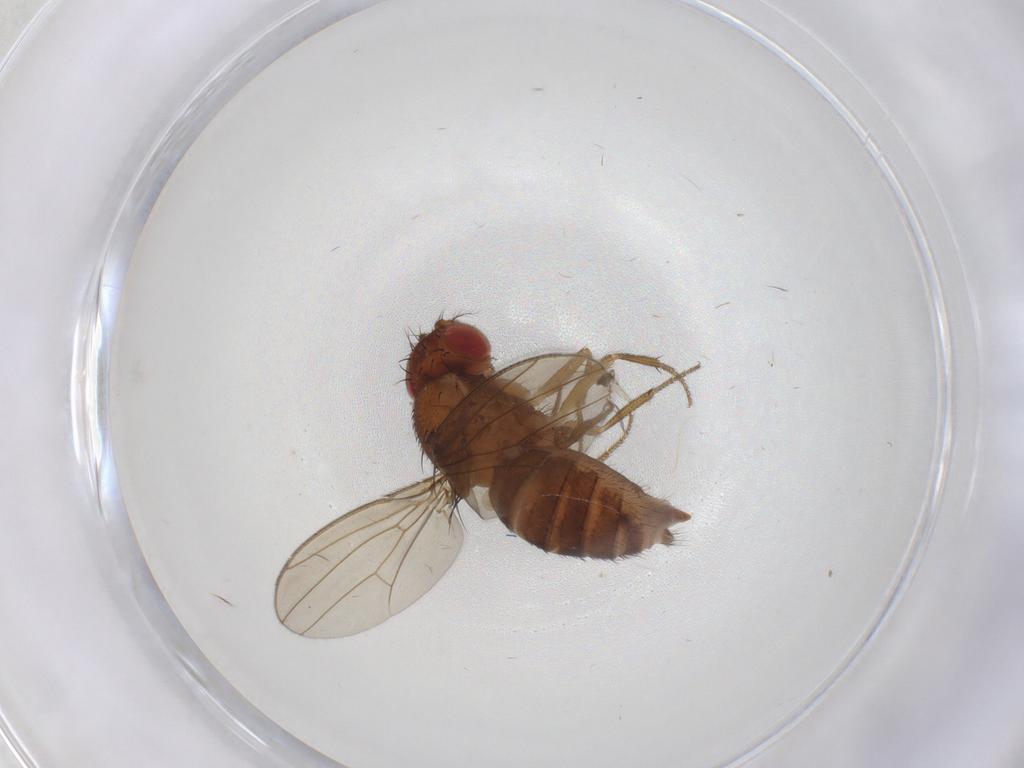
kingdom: Animalia
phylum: Arthropoda
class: Insecta
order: Diptera
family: Drosophilidae
